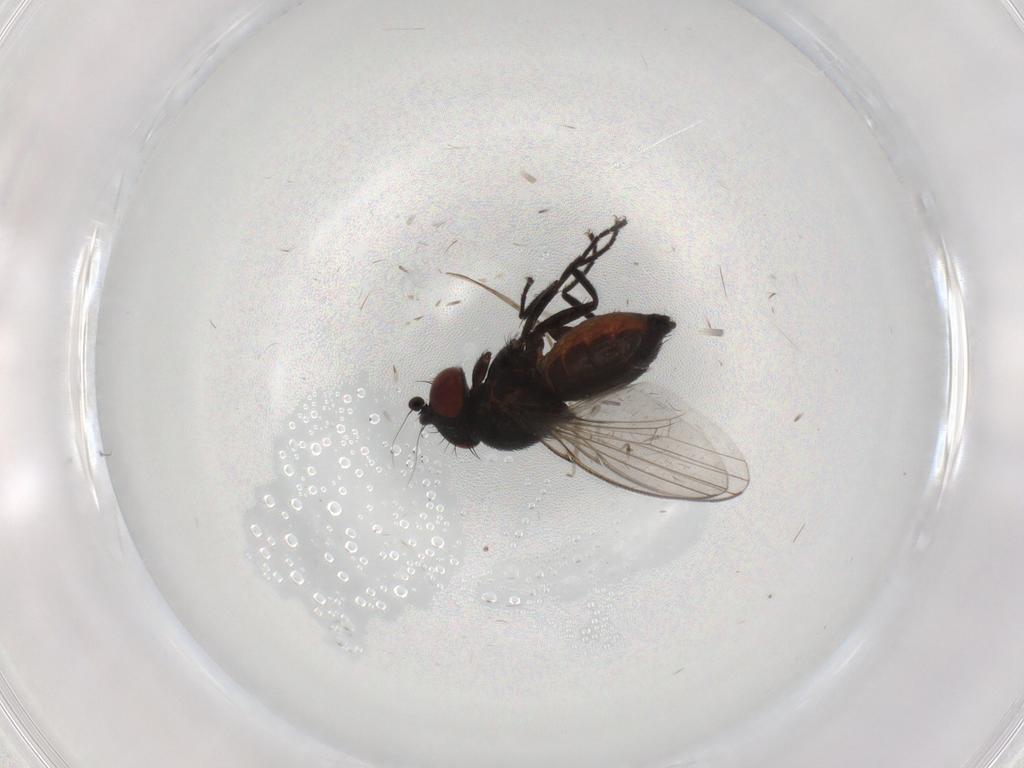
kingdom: Animalia
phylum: Arthropoda
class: Insecta
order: Diptera
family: Milichiidae
